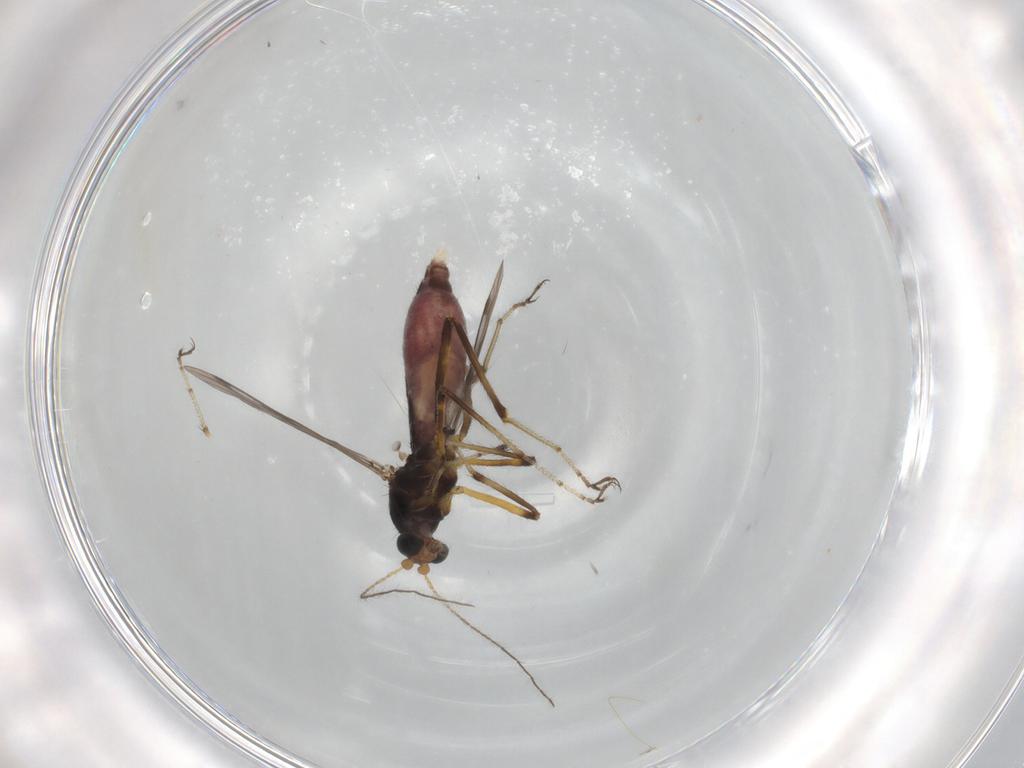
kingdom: Animalia
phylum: Arthropoda
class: Insecta
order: Diptera
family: Ceratopogonidae
